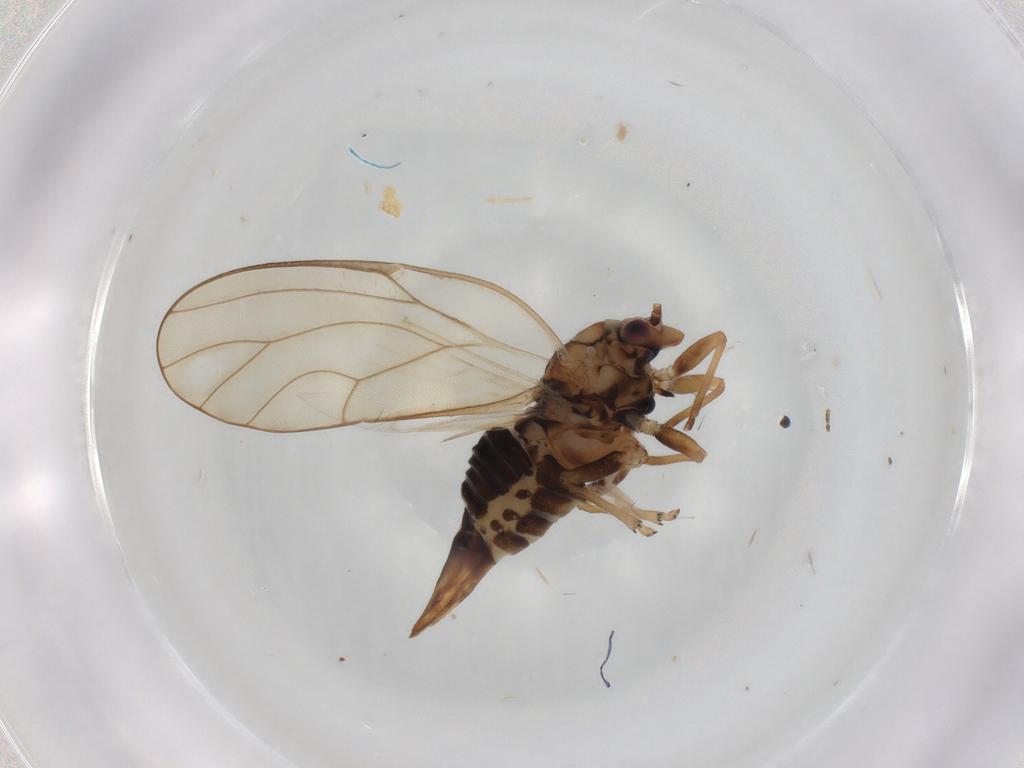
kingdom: Animalia
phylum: Arthropoda
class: Insecta
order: Hemiptera
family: Psyllidae
